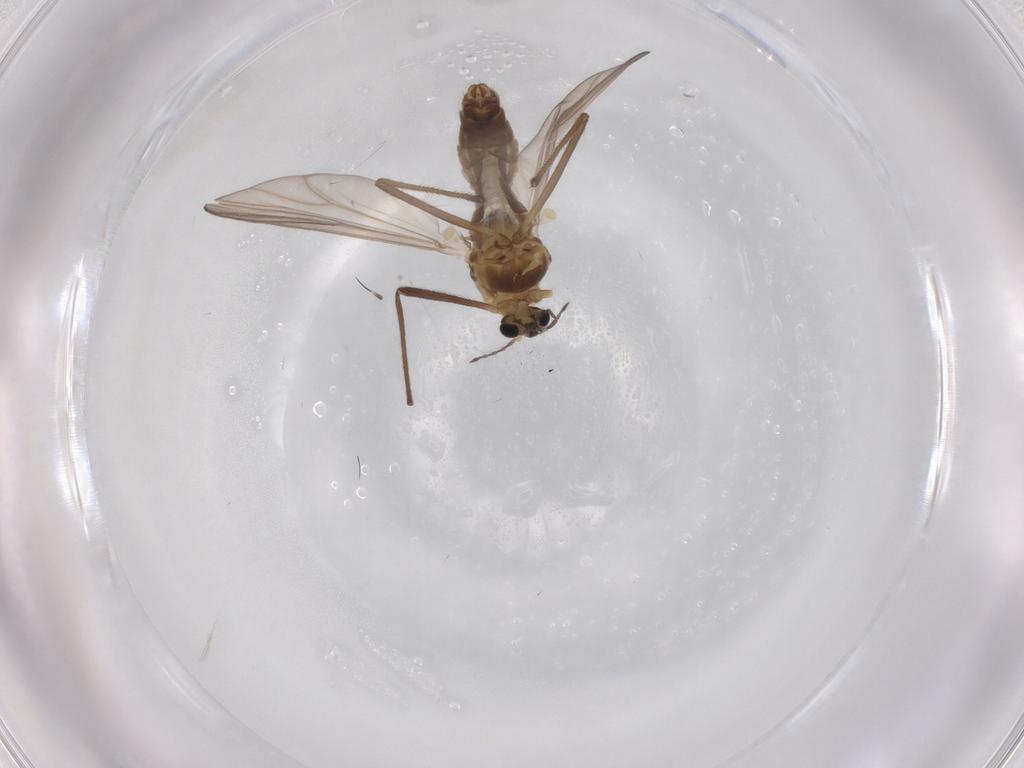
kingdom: Animalia
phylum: Arthropoda
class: Insecta
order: Diptera
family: Chironomidae
